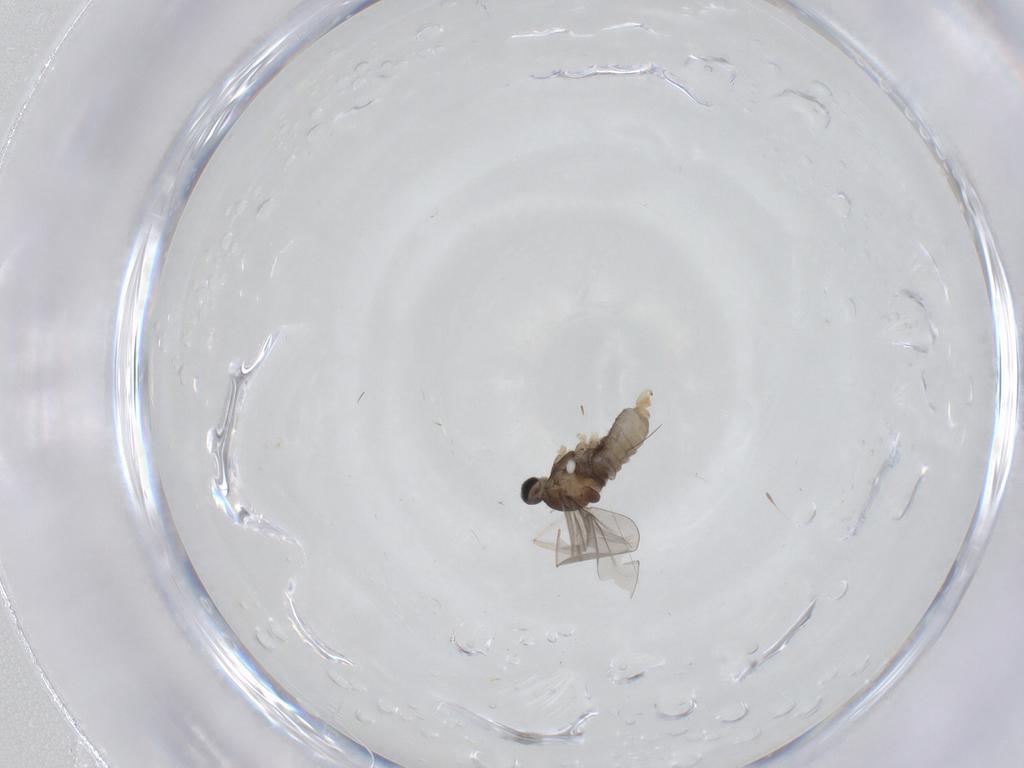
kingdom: Animalia
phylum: Arthropoda
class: Insecta
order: Diptera
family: Cecidomyiidae
